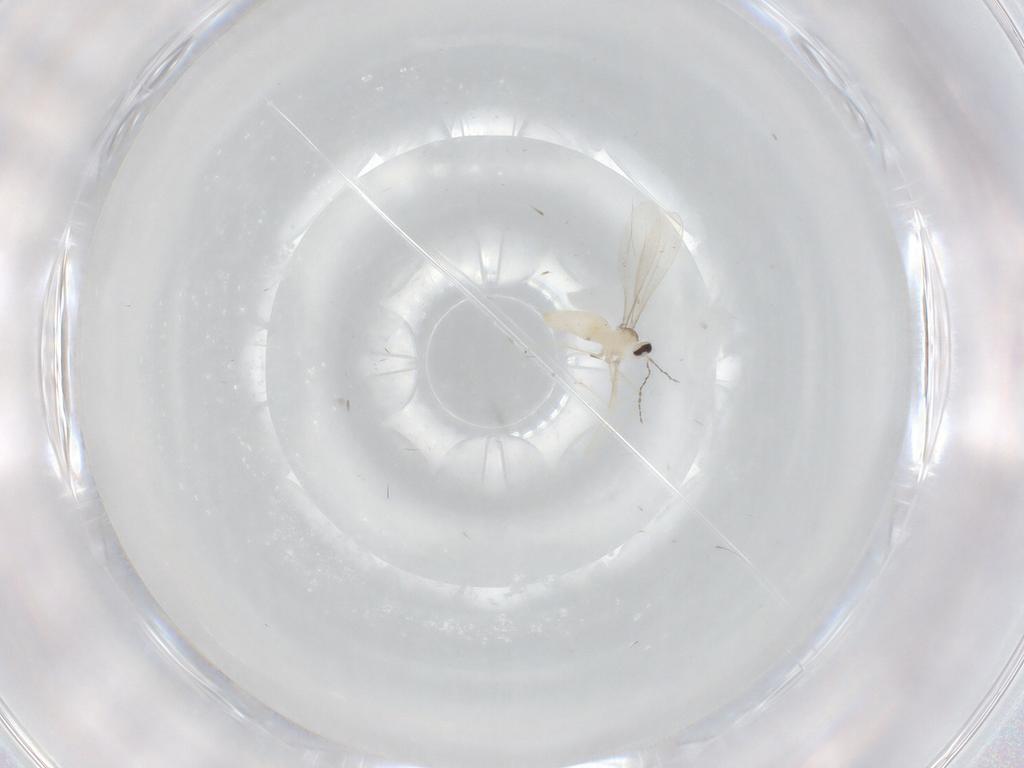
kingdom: Animalia
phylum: Arthropoda
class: Insecta
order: Diptera
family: Cecidomyiidae
